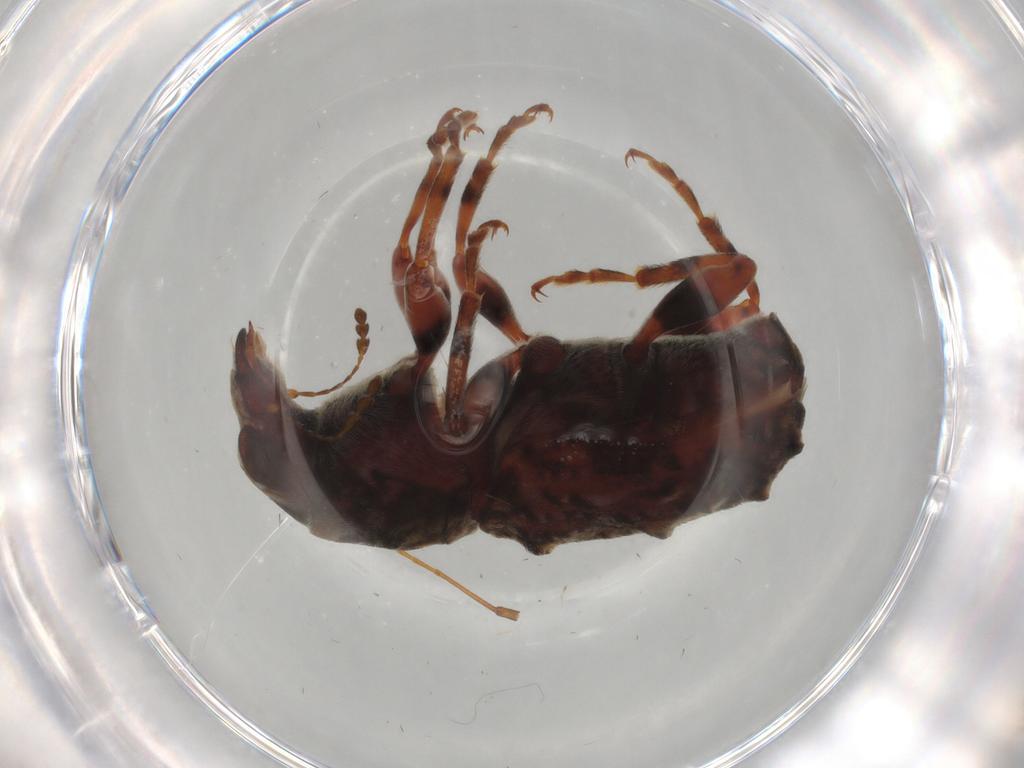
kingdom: Animalia
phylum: Arthropoda
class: Insecta
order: Coleoptera
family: Anthribidae
